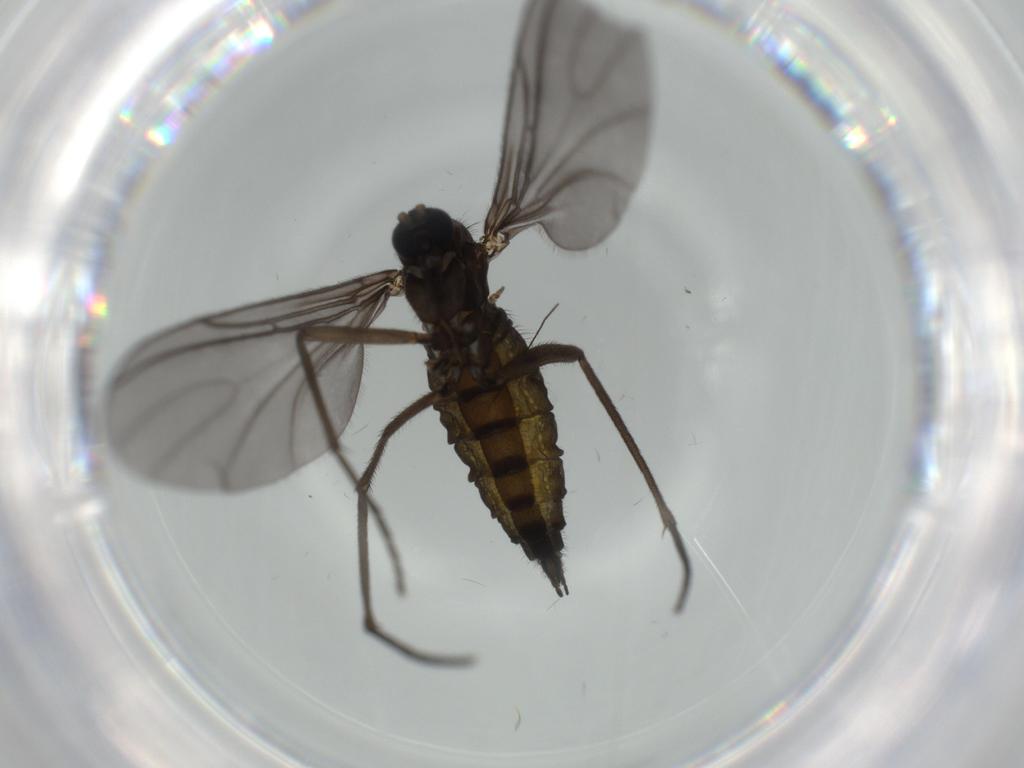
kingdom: Animalia
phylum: Arthropoda
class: Insecta
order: Diptera
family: Sciaridae
